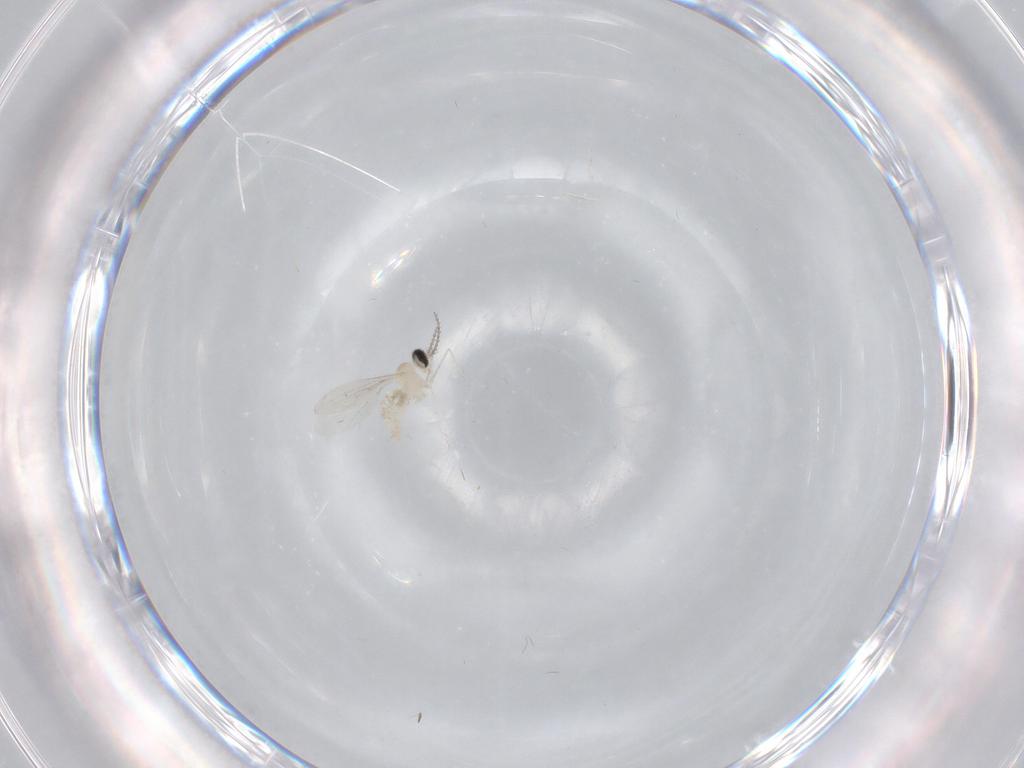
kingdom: Animalia
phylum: Arthropoda
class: Insecta
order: Diptera
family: Cecidomyiidae
